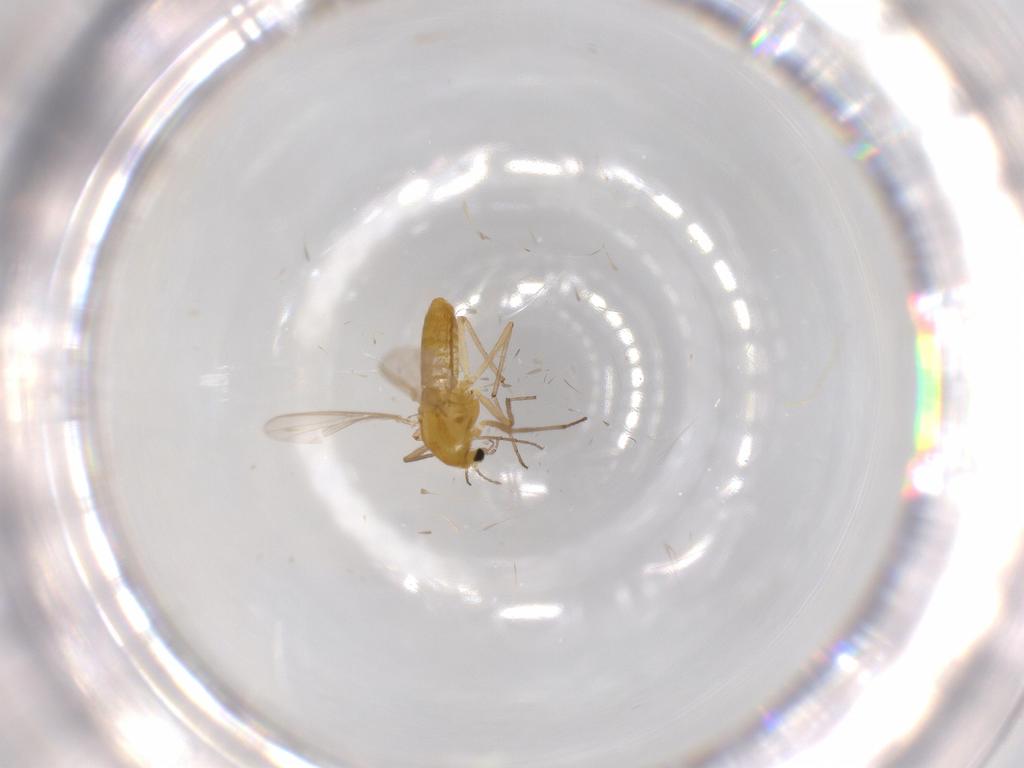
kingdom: Animalia
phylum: Arthropoda
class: Insecta
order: Diptera
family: Chironomidae
